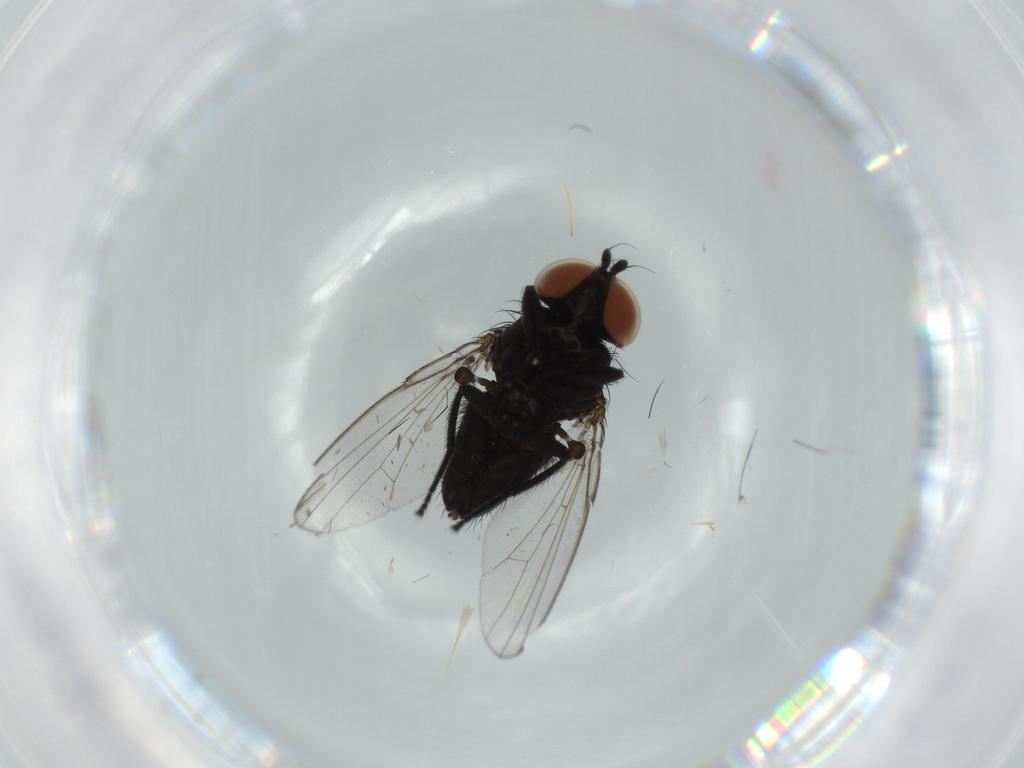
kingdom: Animalia
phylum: Arthropoda
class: Insecta
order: Diptera
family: Milichiidae
